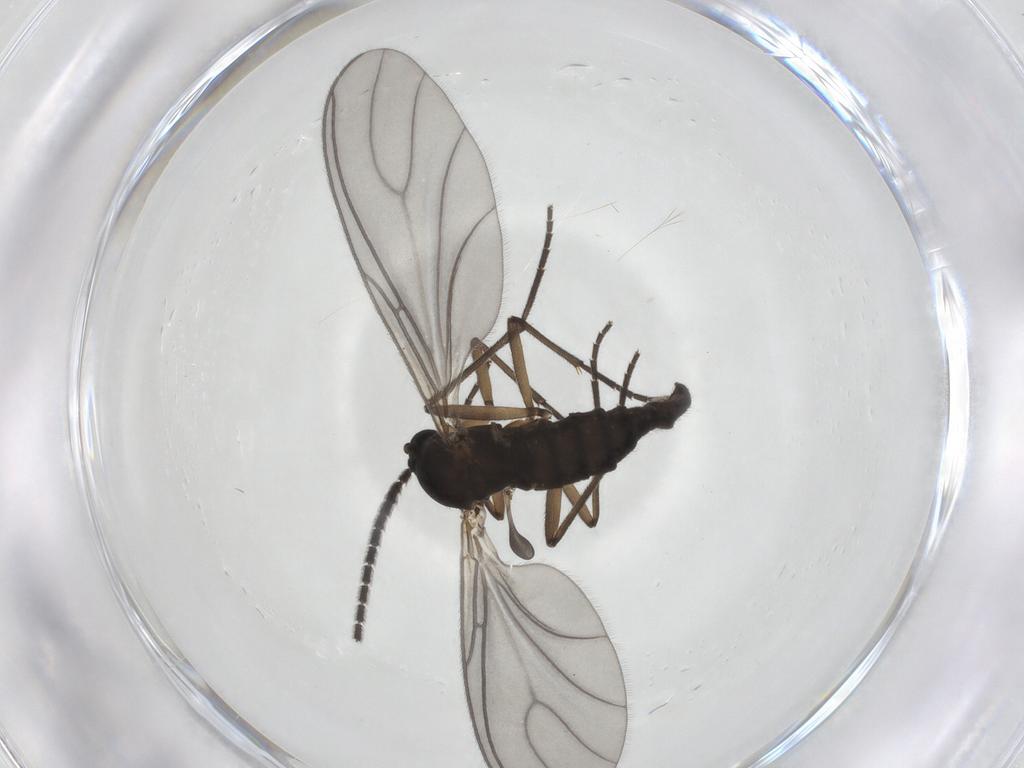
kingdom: Animalia
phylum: Arthropoda
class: Insecta
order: Diptera
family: Sciaridae
